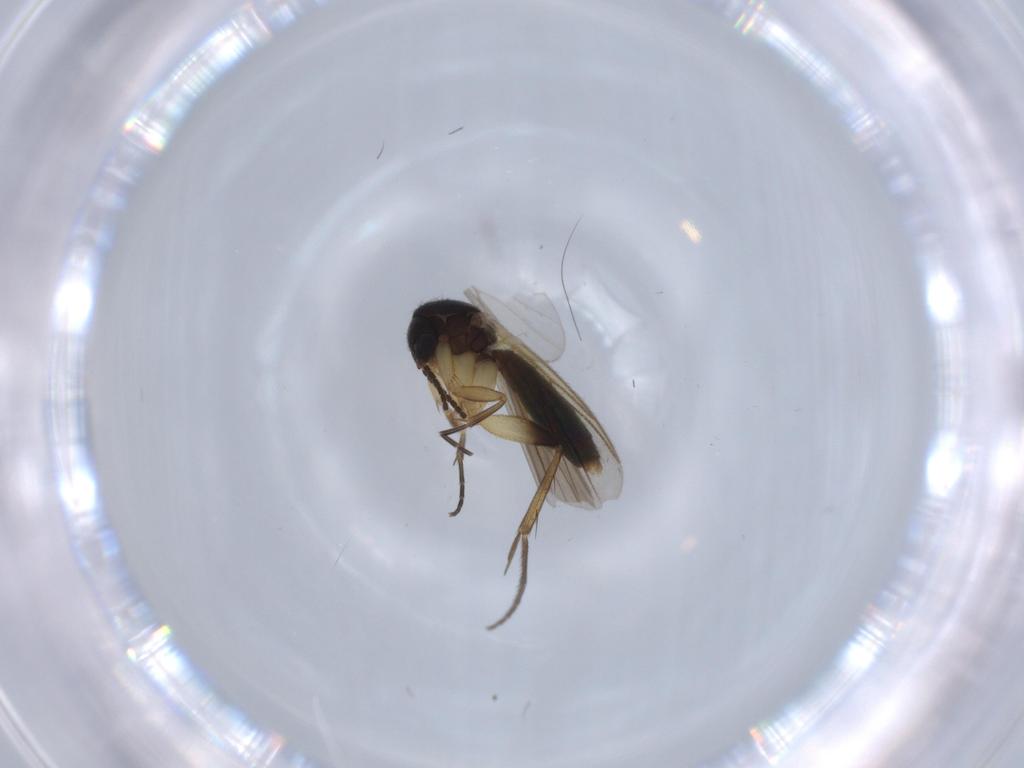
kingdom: Animalia
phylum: Arthropoda
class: Insecta
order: Diptera
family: Mycetophilidae
